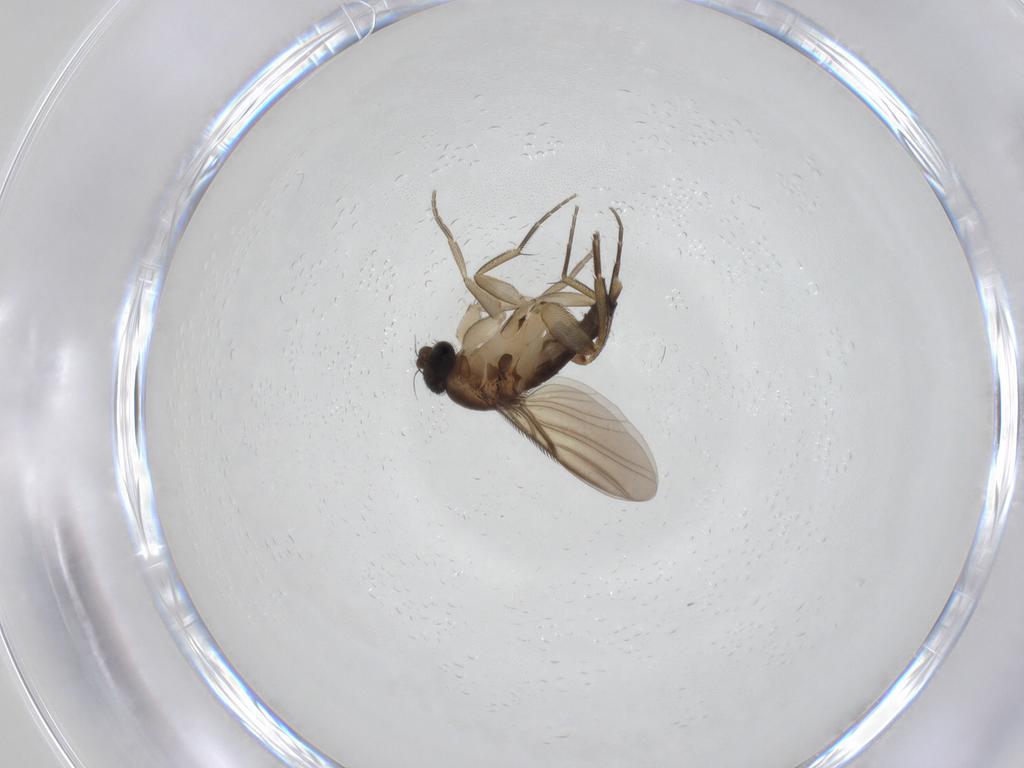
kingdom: Animalia
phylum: Arthropoda
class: Insecta
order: Diptera
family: Phoridae
